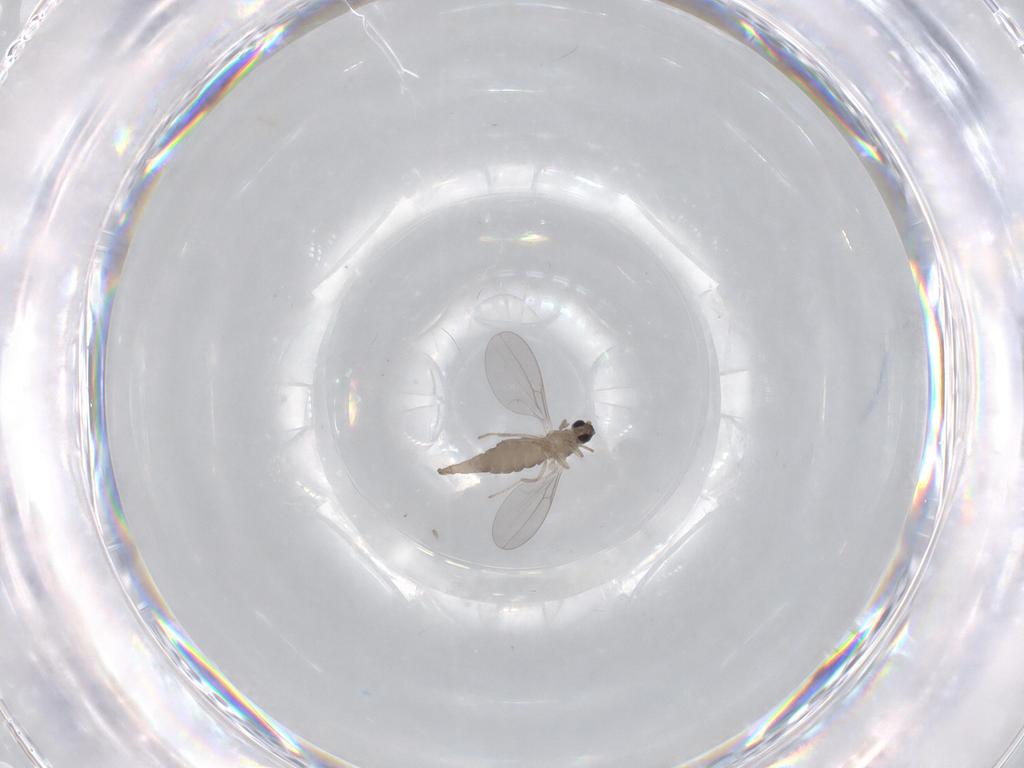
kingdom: Animalia
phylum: Arthropoda
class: Insecta
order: Diptera
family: Cecidomyiidae
